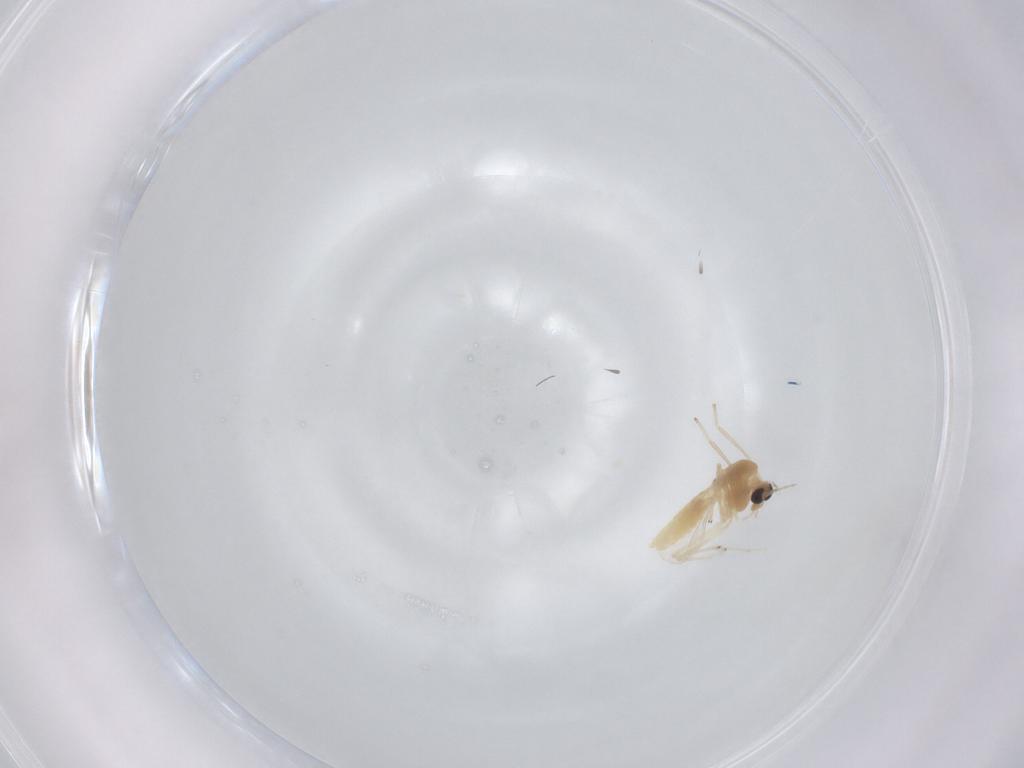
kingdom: Animalia
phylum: Arthropoda
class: Insecta
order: Diptera
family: Chironomidae
